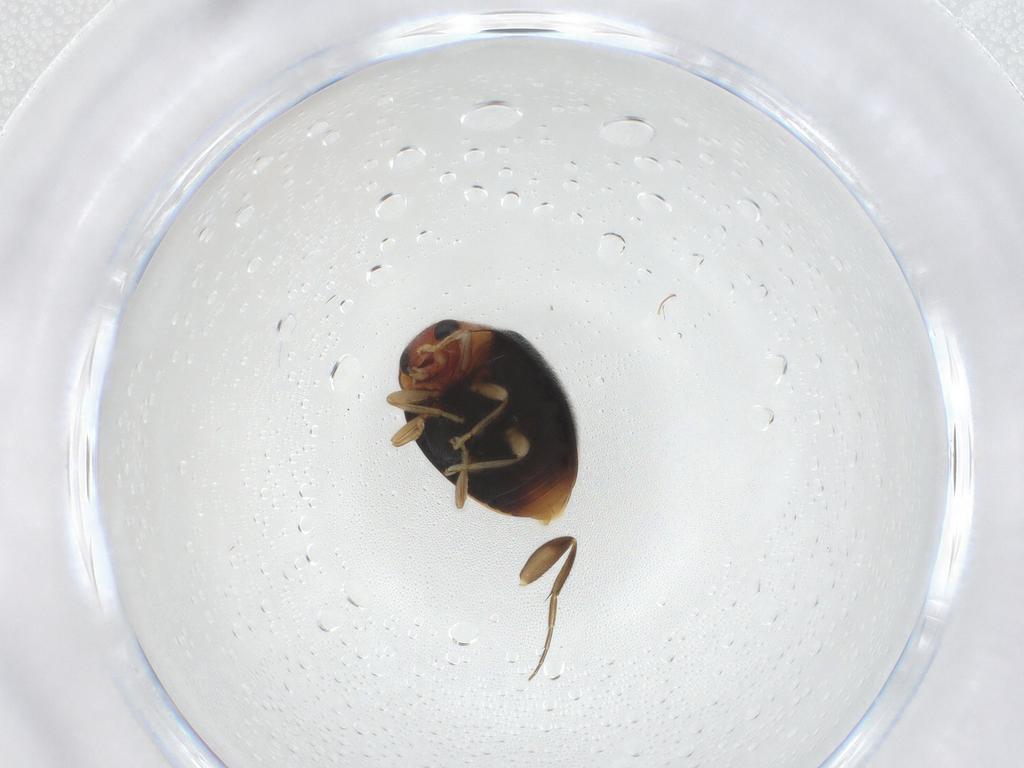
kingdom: Animalia
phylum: Arthropoda
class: Insecta
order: Coleoptera
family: Coccinellidae
